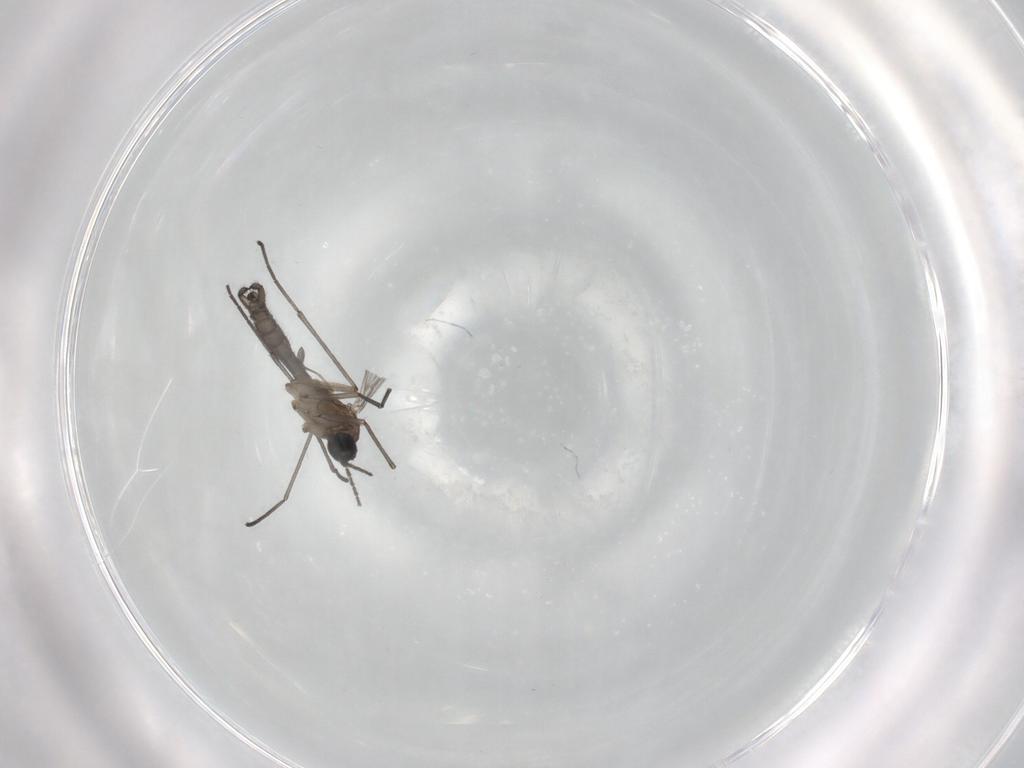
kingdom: Animalia
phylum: Arthropoda
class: Insecta
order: Diptera
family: Sciaridae
